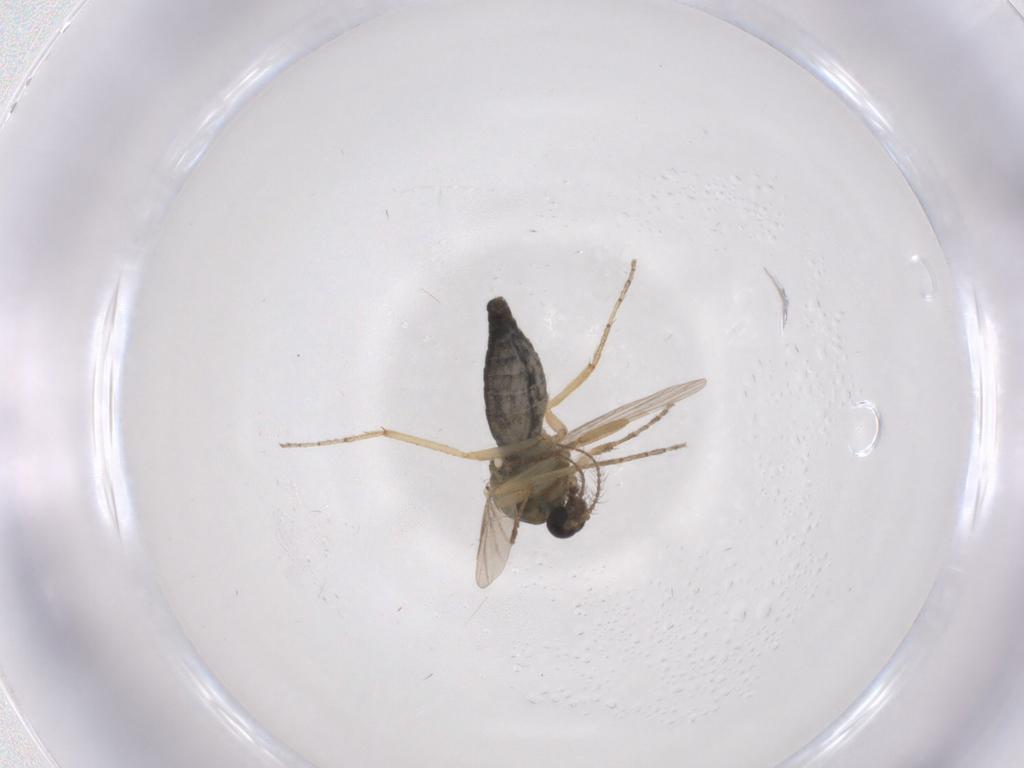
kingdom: Animalia
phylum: Arthropoda
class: Insecta
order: Diptera
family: Ceratopogonidae
